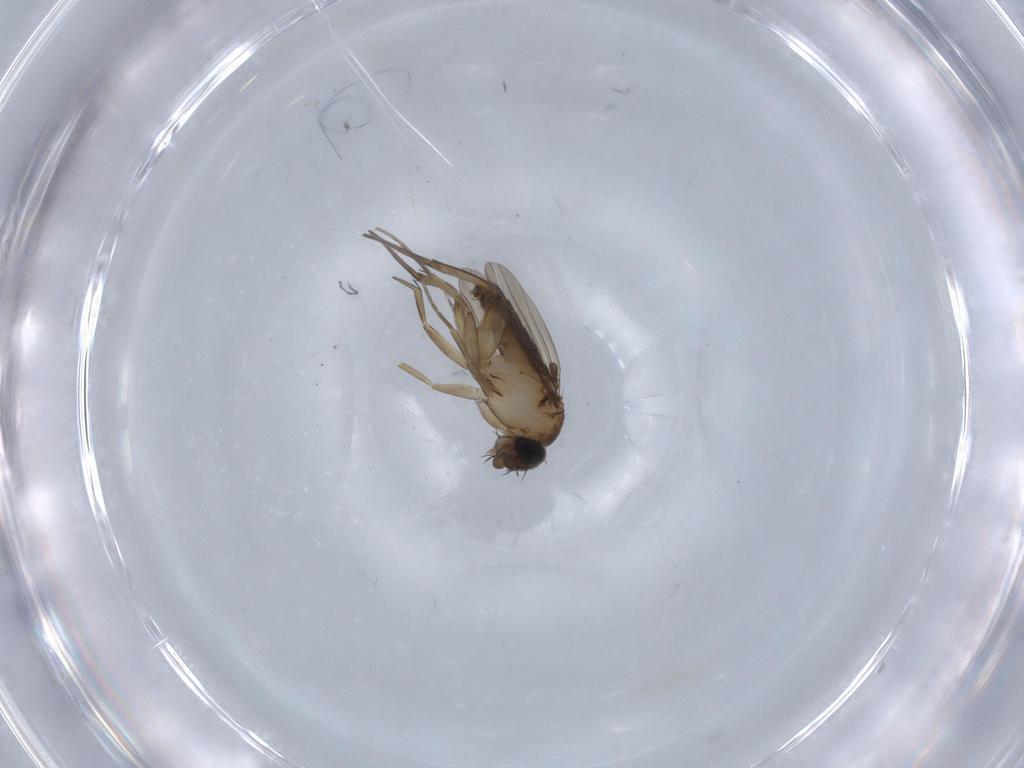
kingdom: Animalia
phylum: Arthropoda
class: Insecta
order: Diptera
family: Phoridae
